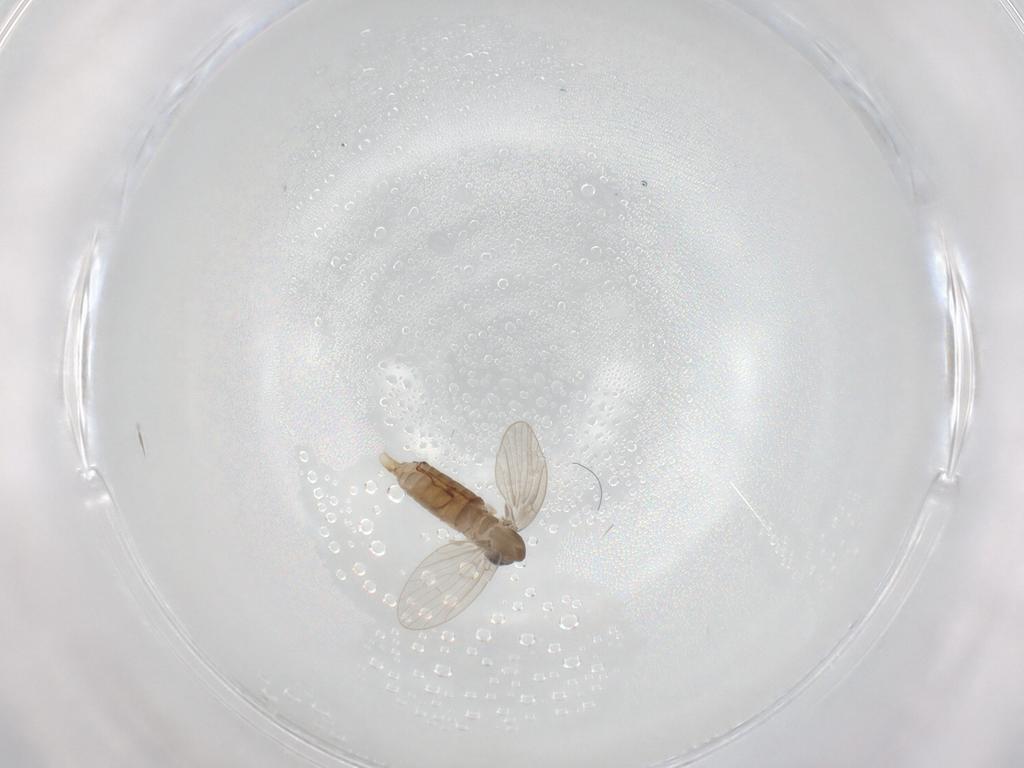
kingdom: Animalia
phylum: Arthropoda
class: Insecta
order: Diptera
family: Psychodidae
